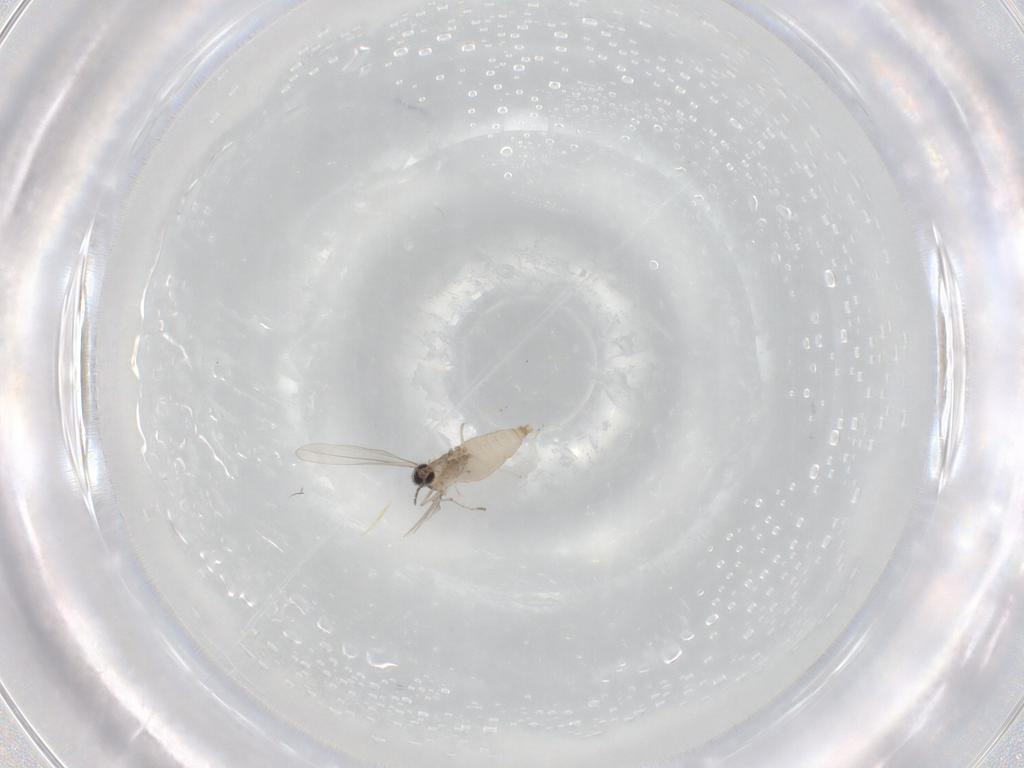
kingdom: Animalia
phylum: Arthropoda
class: Insecta
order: Diptera
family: Cecidomyiidae
